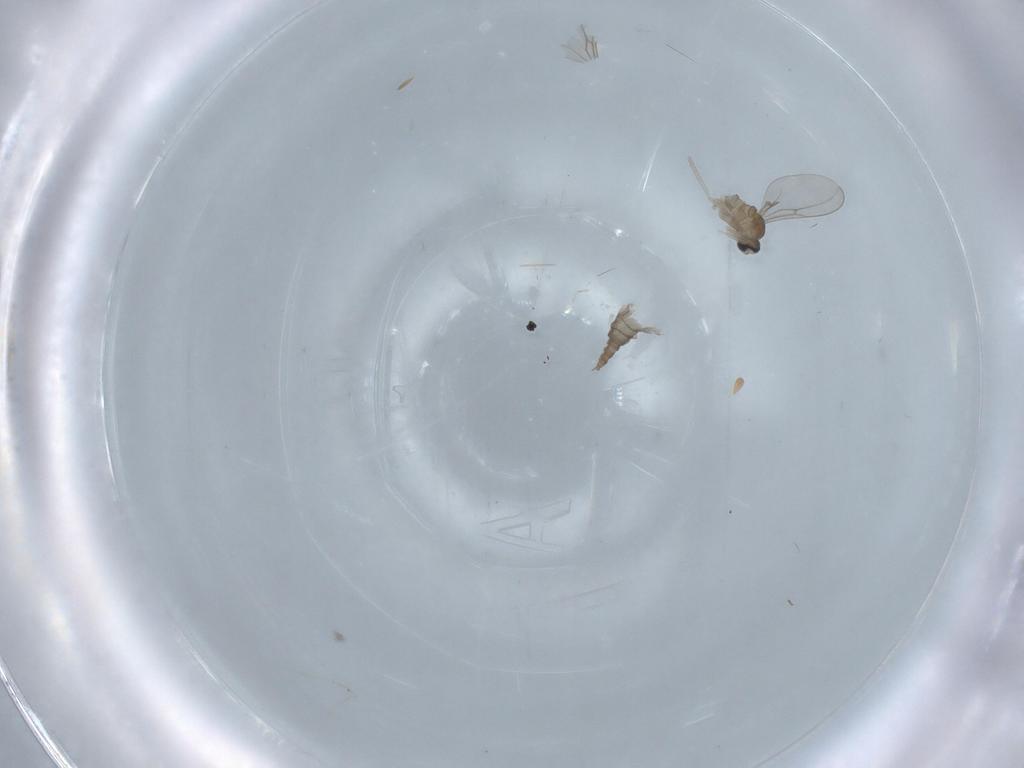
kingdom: Animalia
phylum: Arthropoda
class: Insecta
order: Diptera
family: Cecidomyiidae
